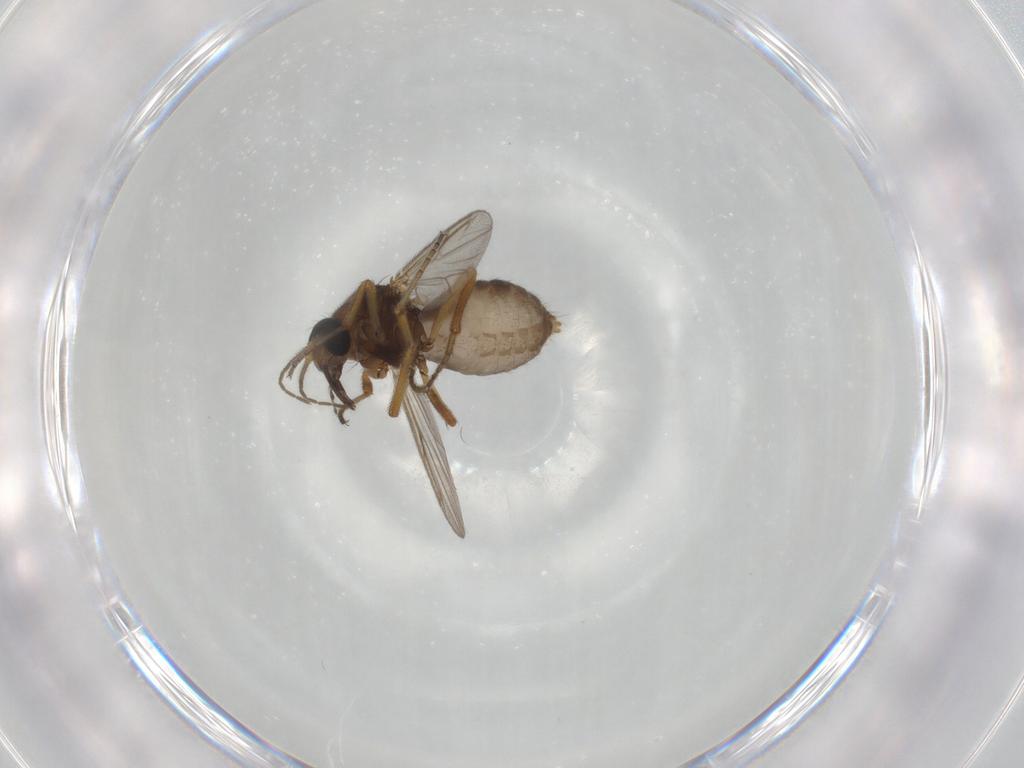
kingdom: Animalia
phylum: Arthropoda
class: Insecta
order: Diptera
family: Ceratopogonidae
